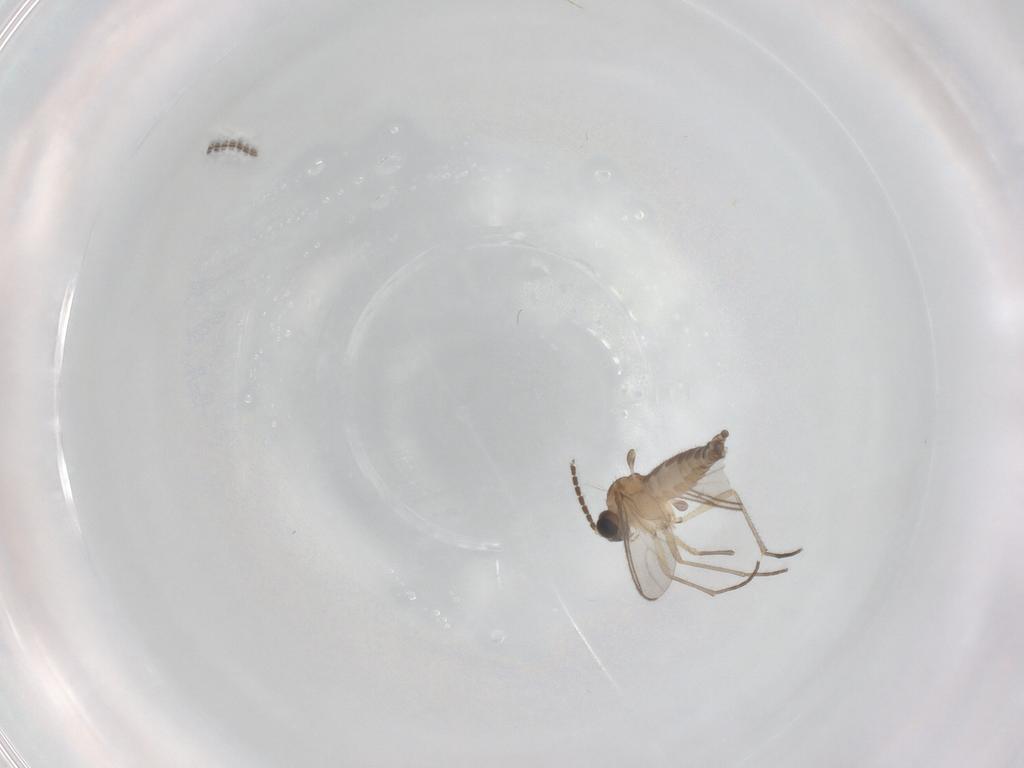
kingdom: Animalia
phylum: Arthropoda
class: Insecta
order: Diptera
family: Sciaridae
